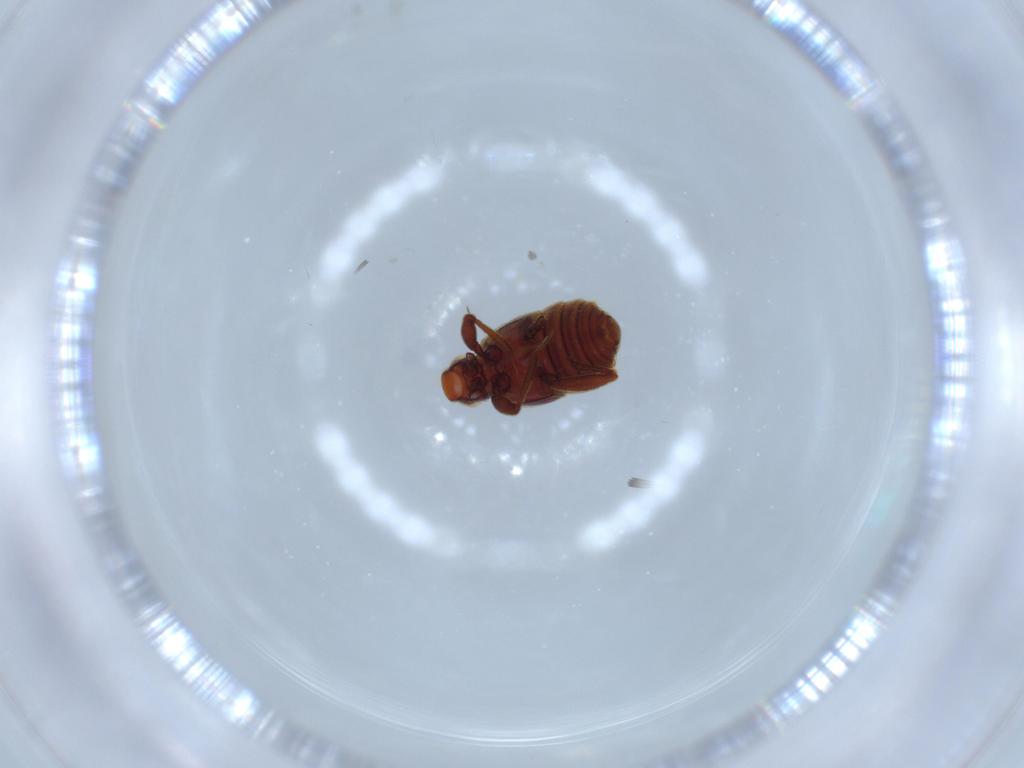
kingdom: Animalia
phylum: Arthropoda
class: Insecta
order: Coleoptera
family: Staphylinidae
